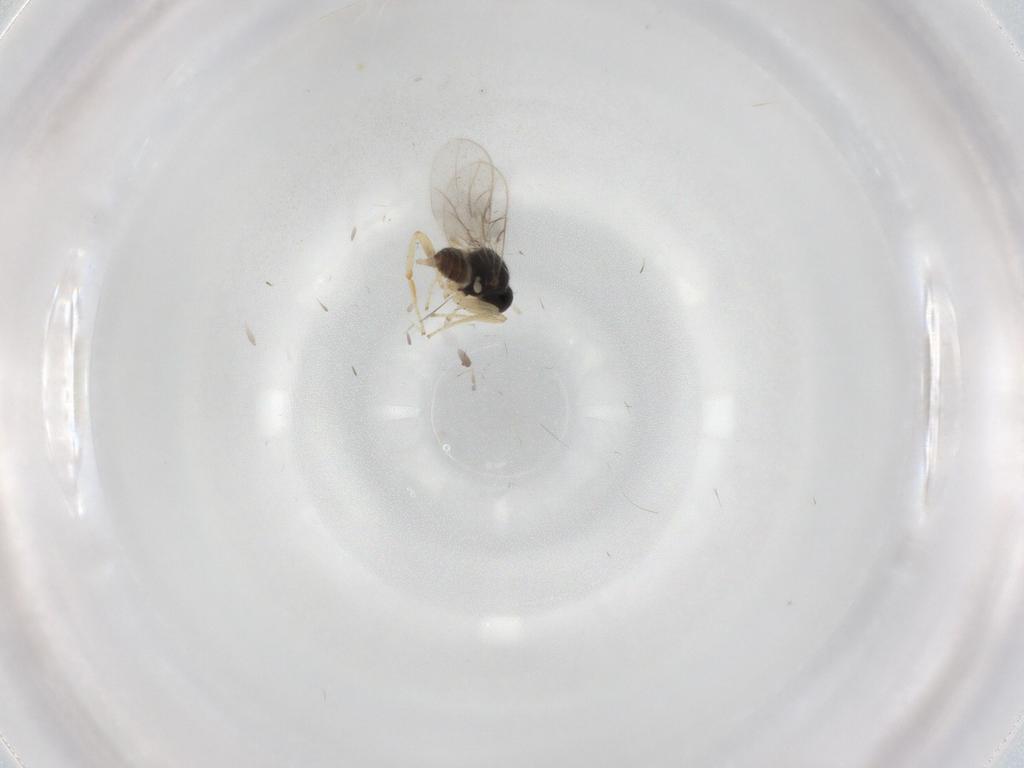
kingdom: Animalia
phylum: Arthropoda
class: Insecta
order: Diptera
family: Hybotidae
